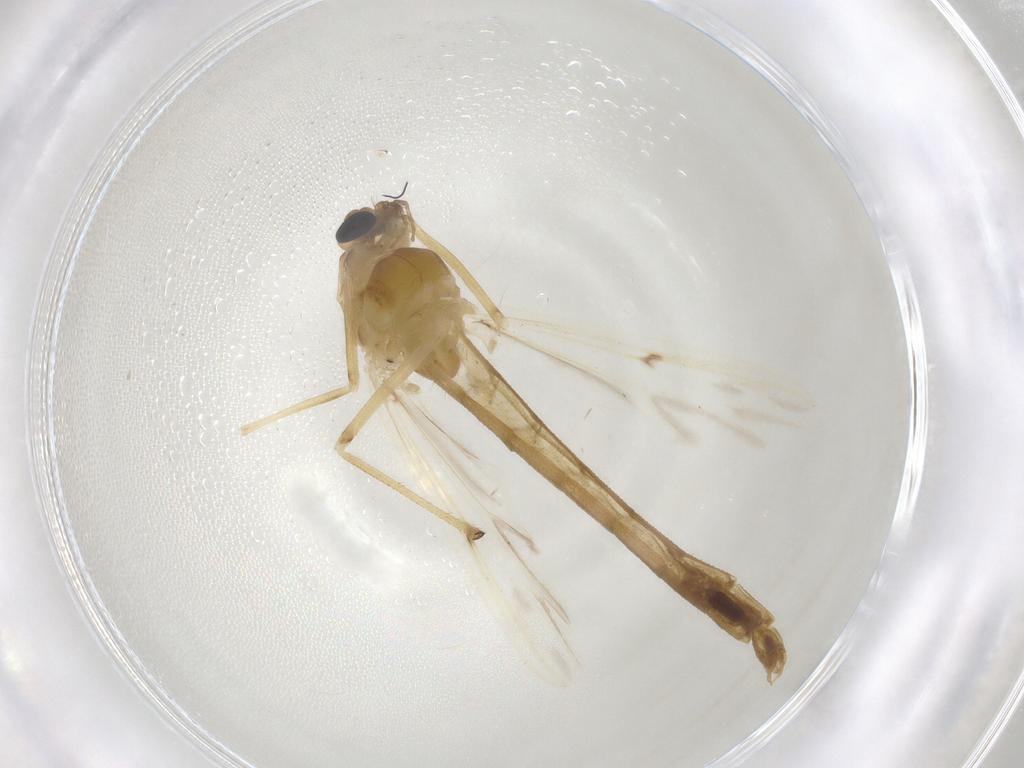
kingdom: Animalia
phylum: Arthropoda
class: Insecta
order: Diptera
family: Chironomidae
